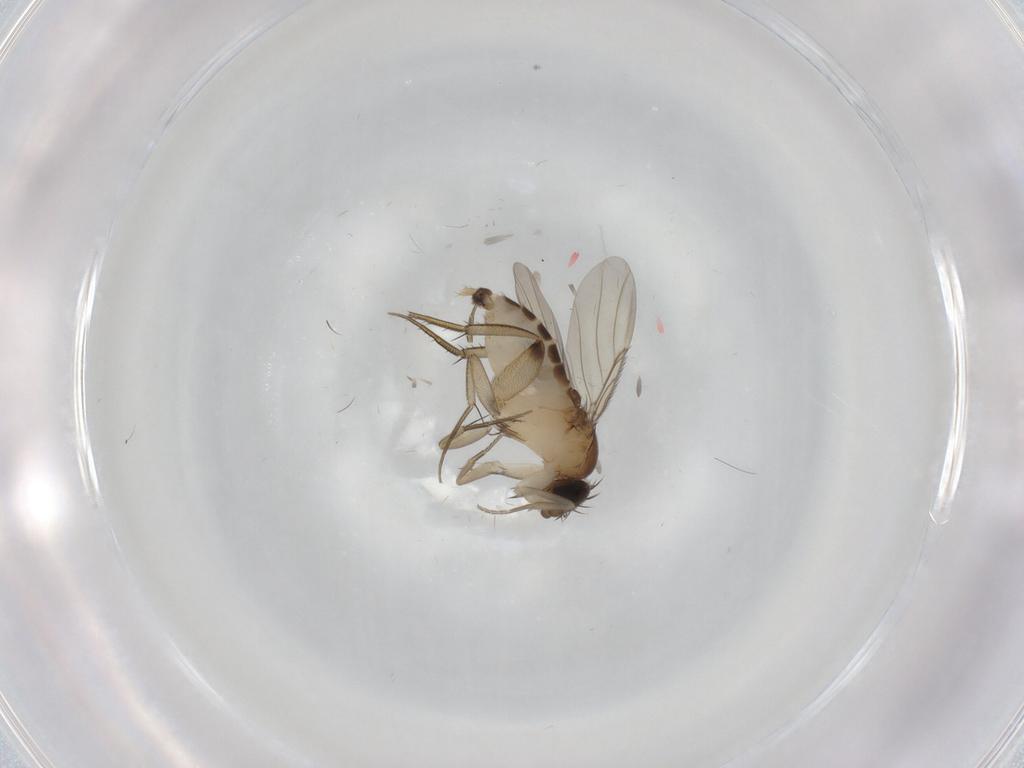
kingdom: Animalia
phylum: Arthropoda
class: Insecta
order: Diptera
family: Phoridae
